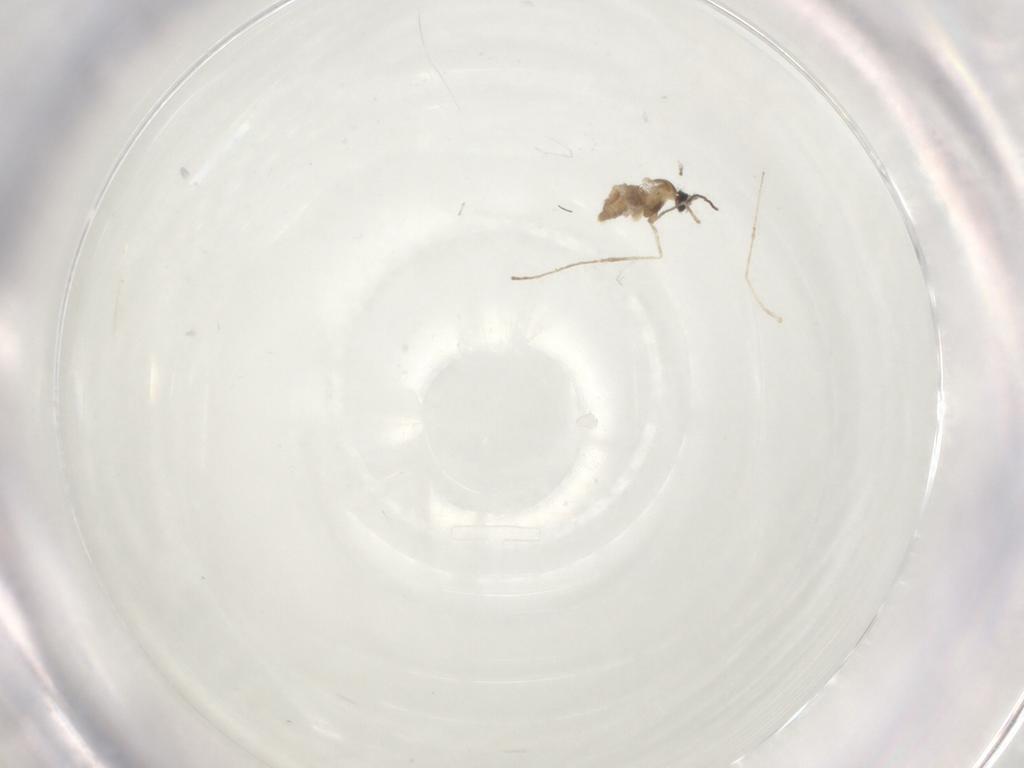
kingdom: Animalia
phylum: Arthropoda
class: Insecta
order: Diptera
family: Cecidomyiidae
